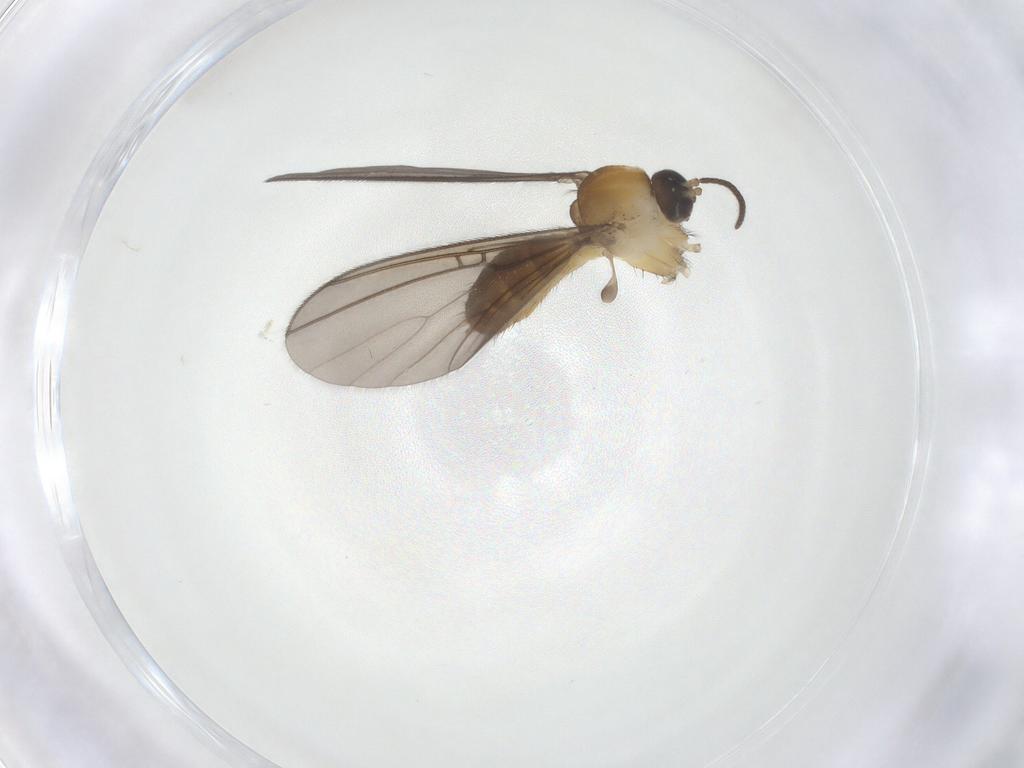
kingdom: Animalia
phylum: Arthropoda
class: Insecta
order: Diptera
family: Mycetophilidae
